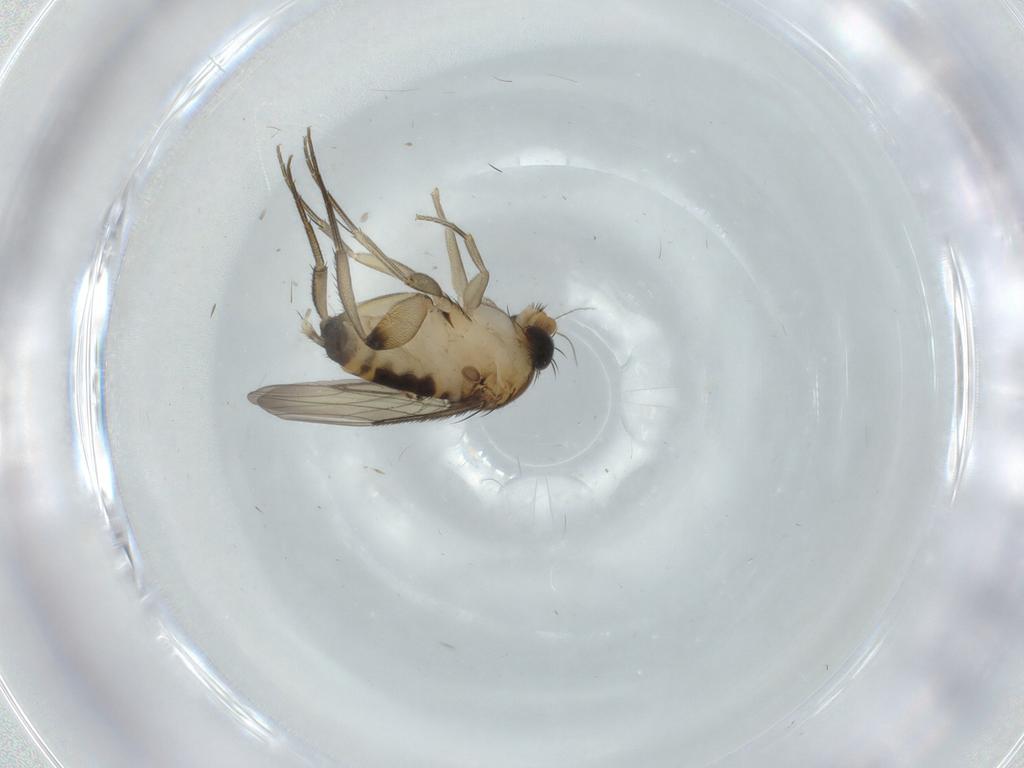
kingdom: Animalia
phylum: Arthropoda
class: Insecta
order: Diptera
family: Phoridae
